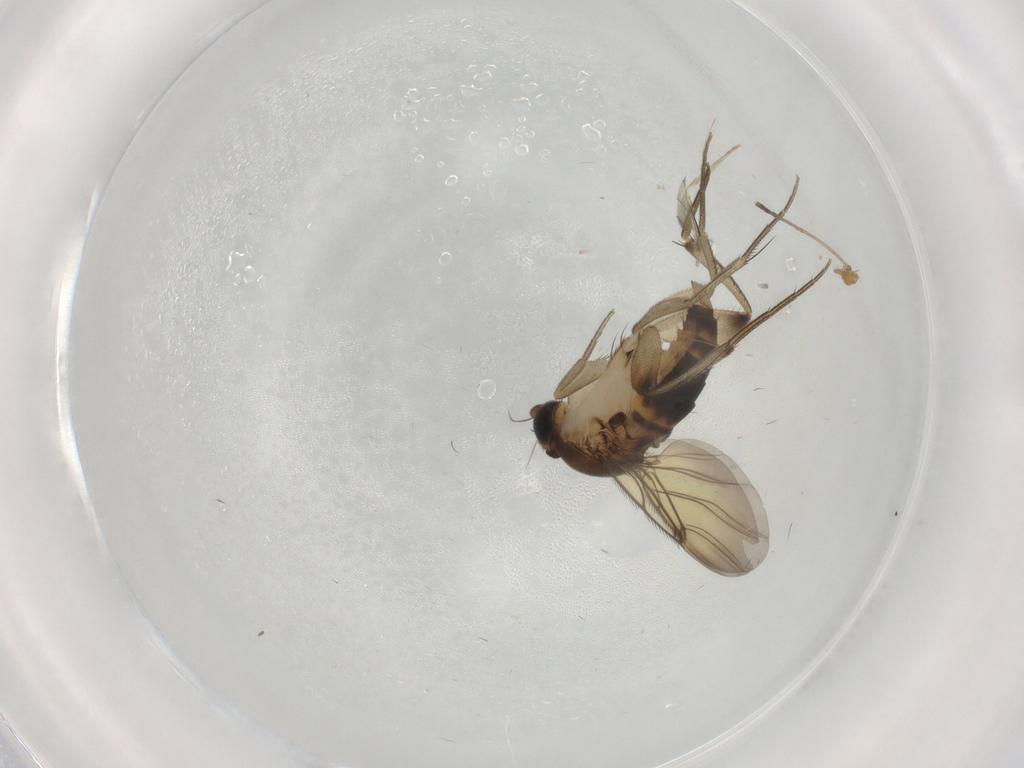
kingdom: Animalia
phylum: Arthropoda
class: Insecta
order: Diptera
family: Phoridae
